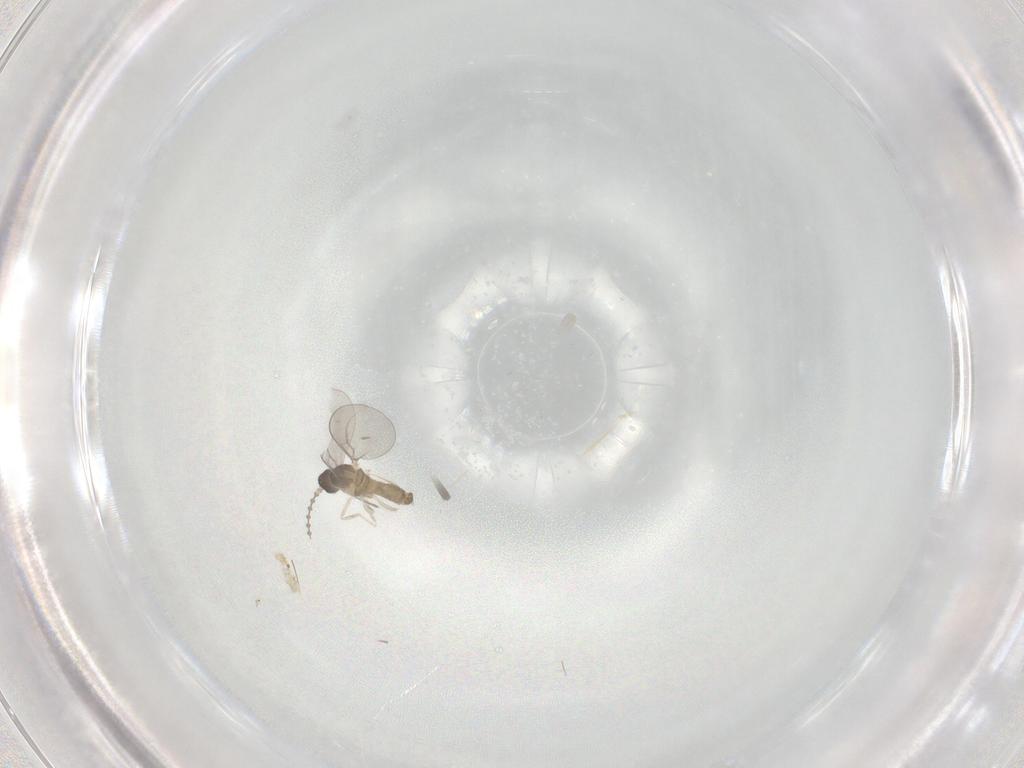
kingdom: Animalia
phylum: Arthropoda
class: Insecta
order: Diptera
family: Cecidomyiidae
